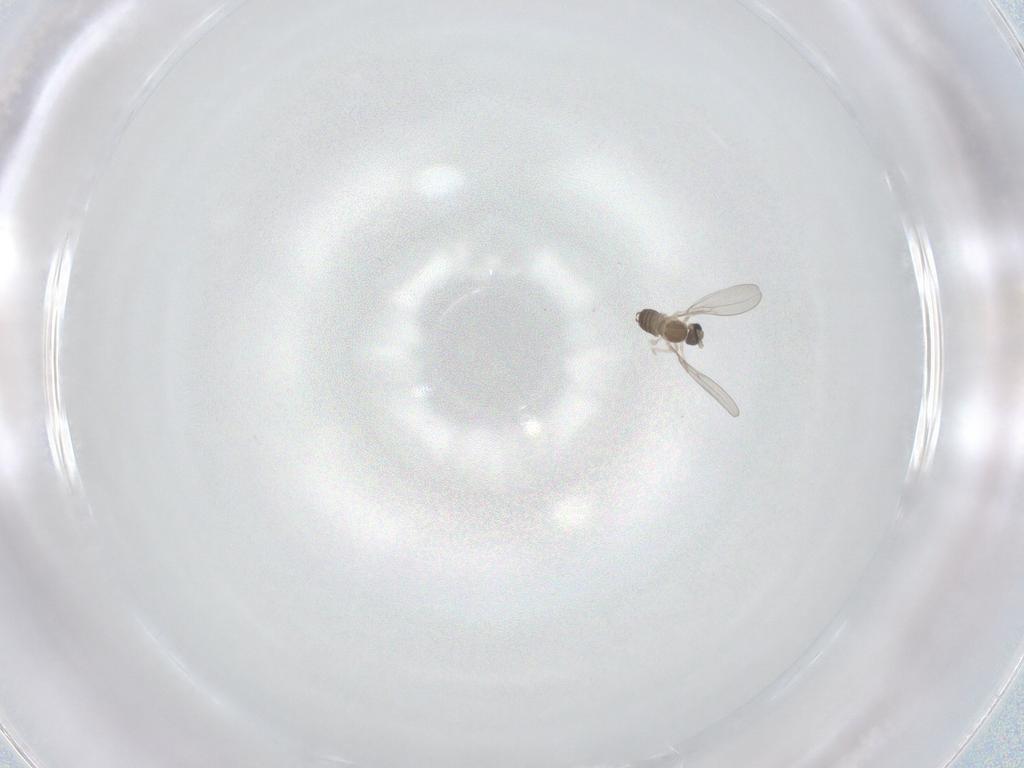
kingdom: Animalia
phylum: Arthropoda
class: Insecta
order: Diptera
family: Cecidomyiidae
